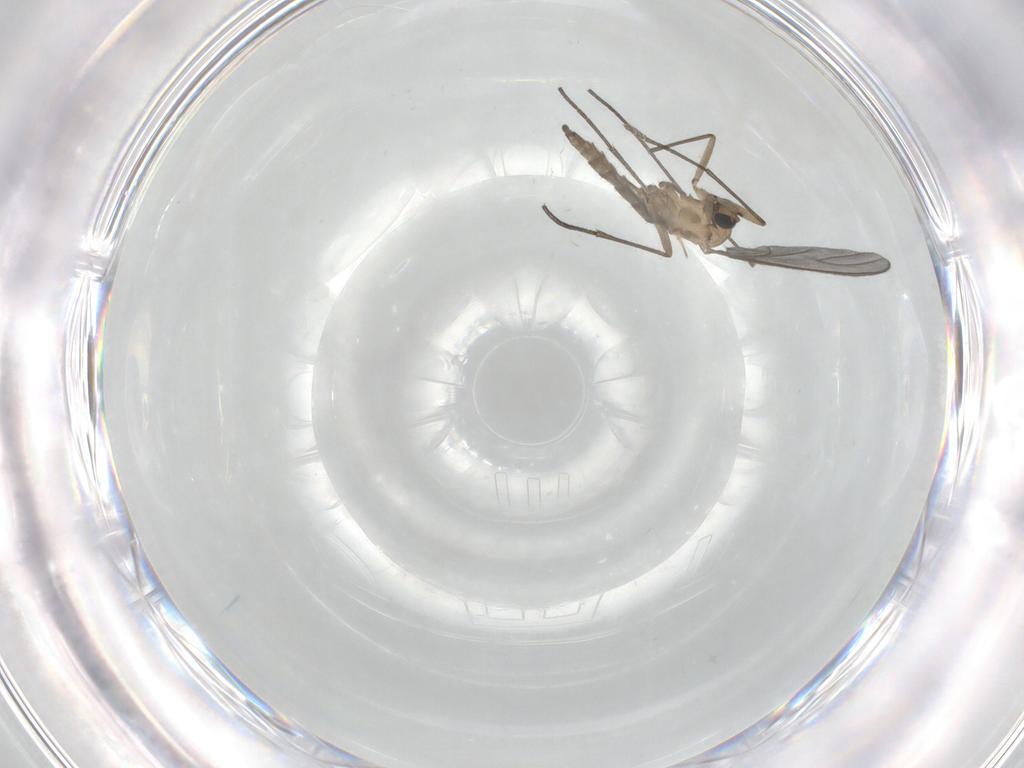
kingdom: Animalia
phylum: Arthropoda
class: Insecta
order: Diptera
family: Sciaridae
